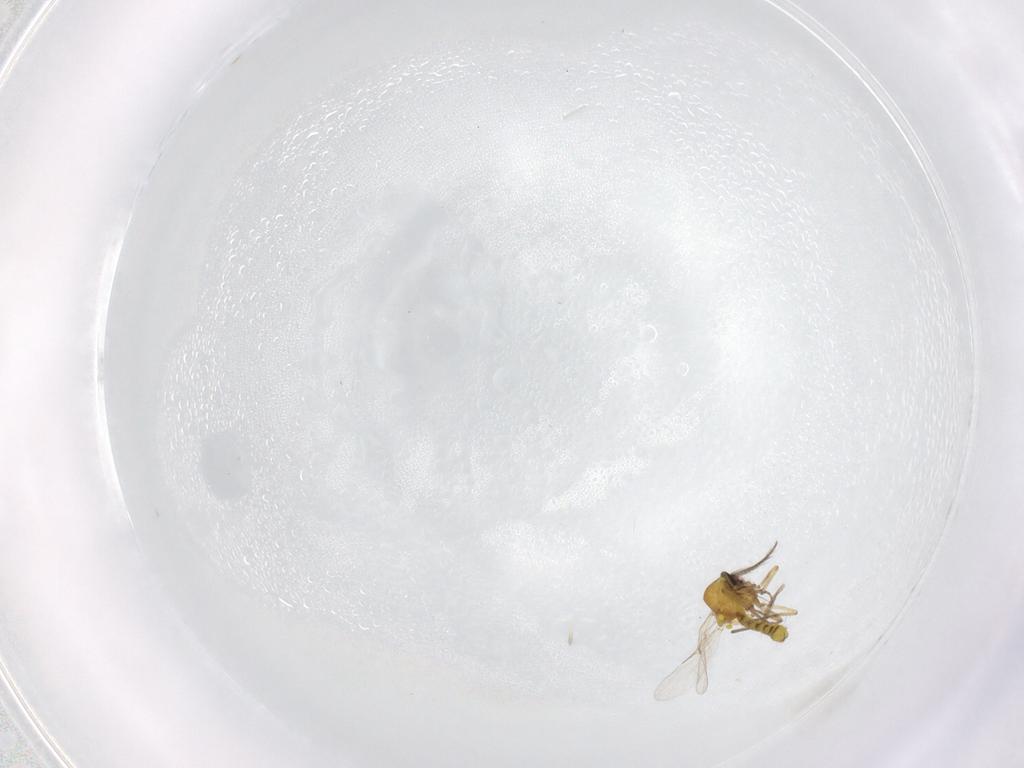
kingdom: Animalia
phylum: Arthropoda
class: Insecta
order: Diptera
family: Ceratopogonidae
